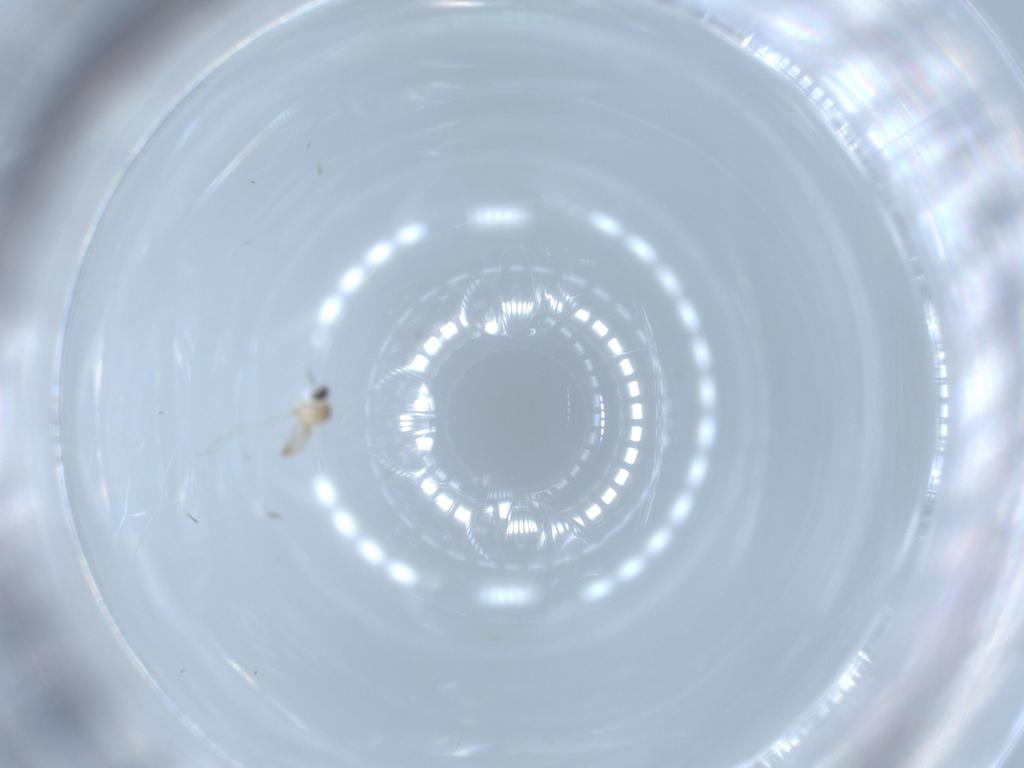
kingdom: Animalia
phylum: Arthropoda
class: Insecta
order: Diptera
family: Cecidomyiidae
